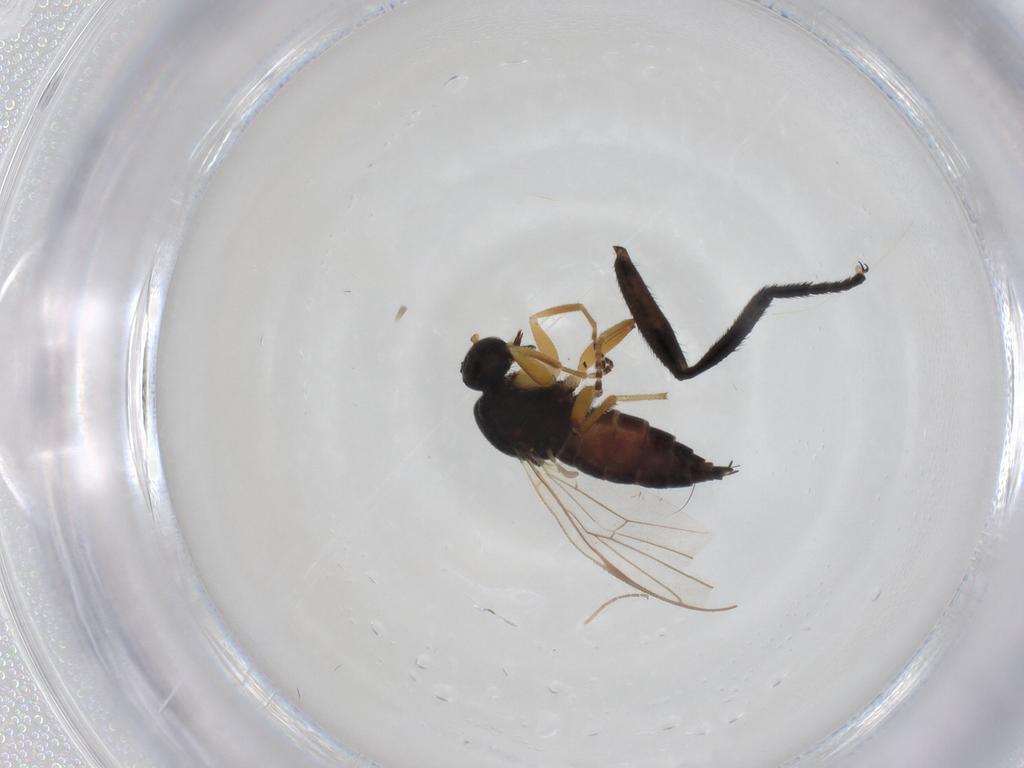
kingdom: Animalia
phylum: Arthropoda
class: Insecta
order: Diptera
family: Hybotidae
